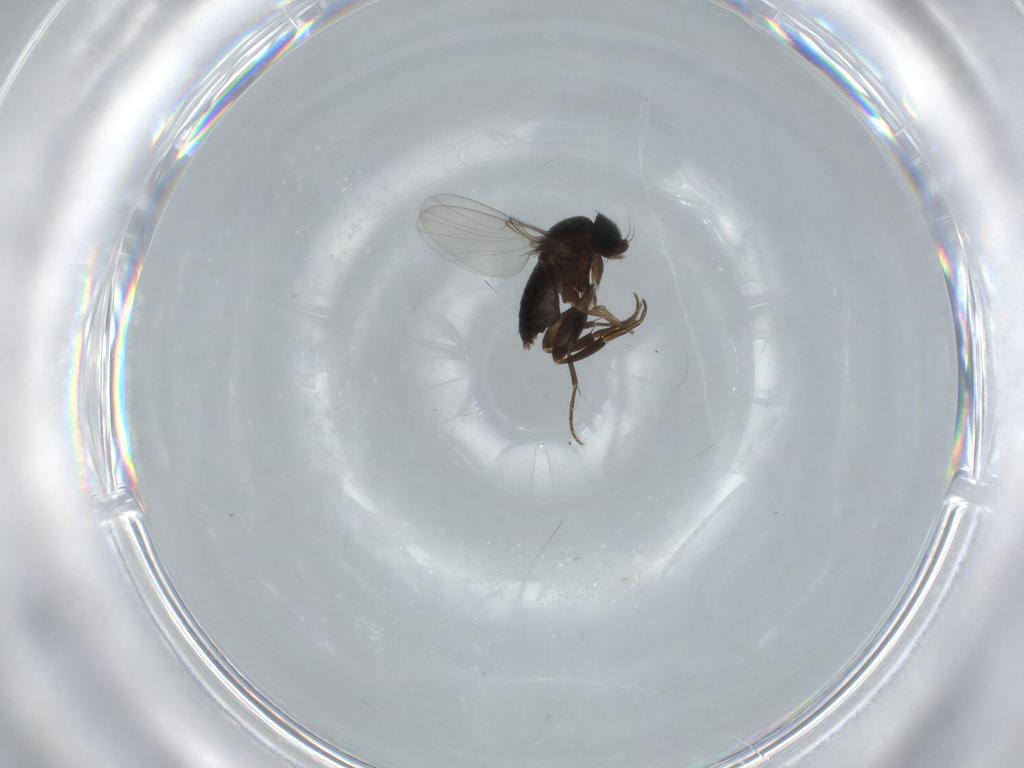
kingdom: Animalia
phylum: Arthropoda
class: Insecta
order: Diptera
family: Phoridae
